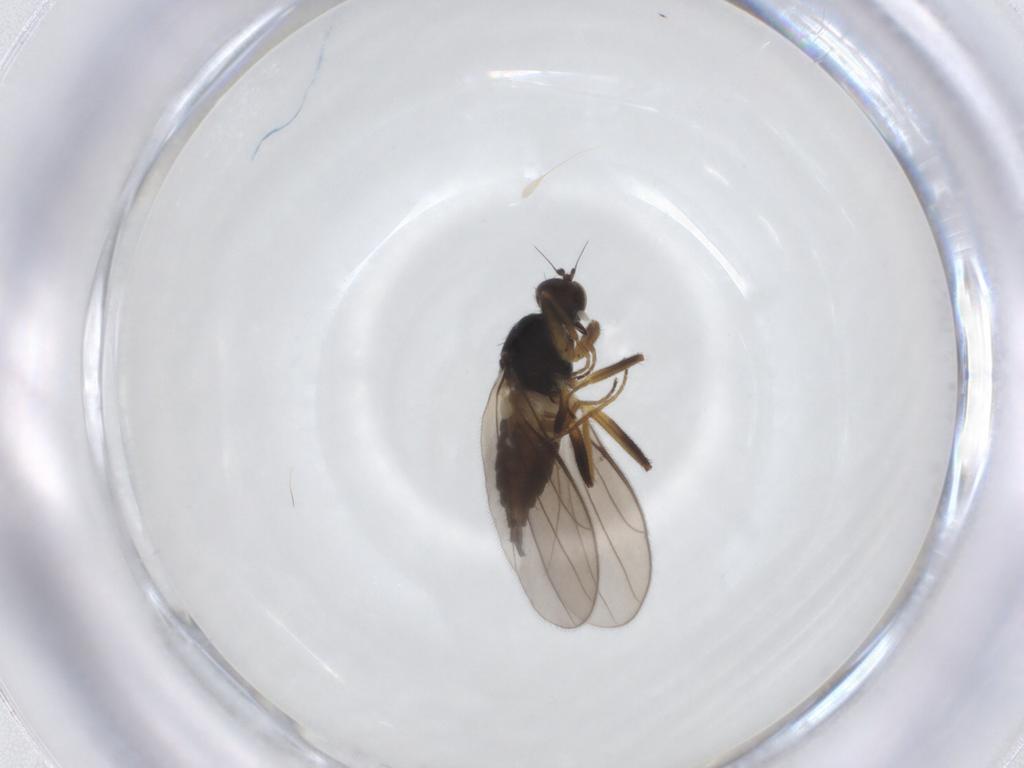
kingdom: Animalia
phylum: Arthropoda
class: Insecta
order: Diptera
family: Hybotidae
